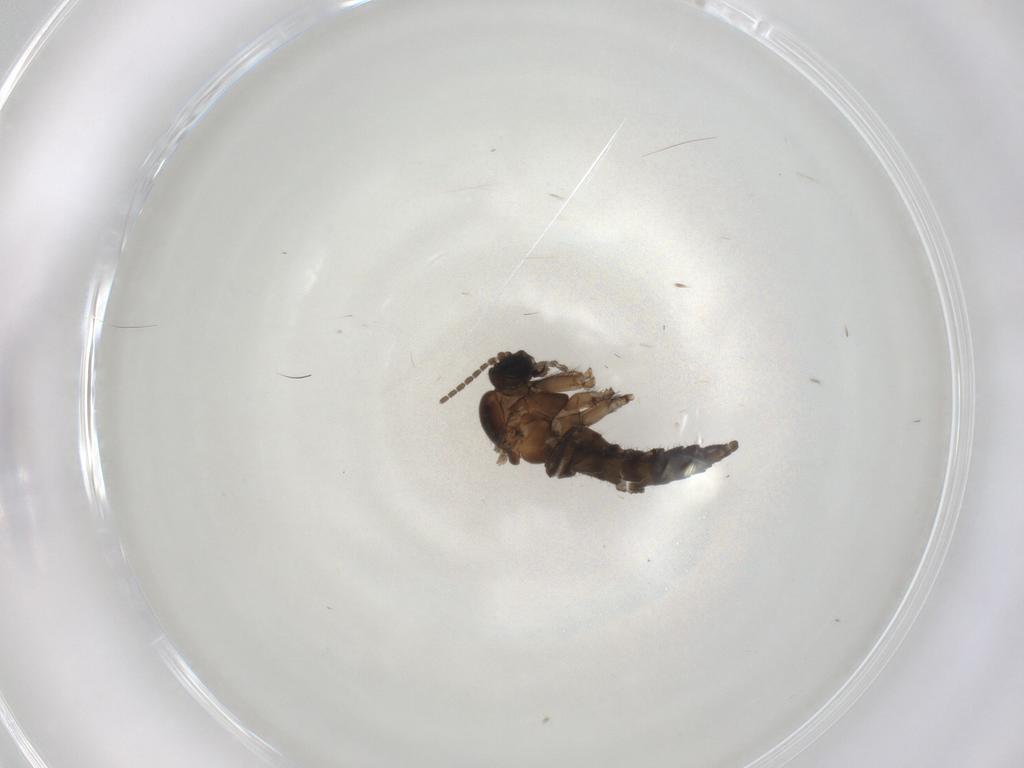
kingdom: Animalia
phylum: Arthropoda
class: Insecta
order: Diptera
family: Sciaridae
